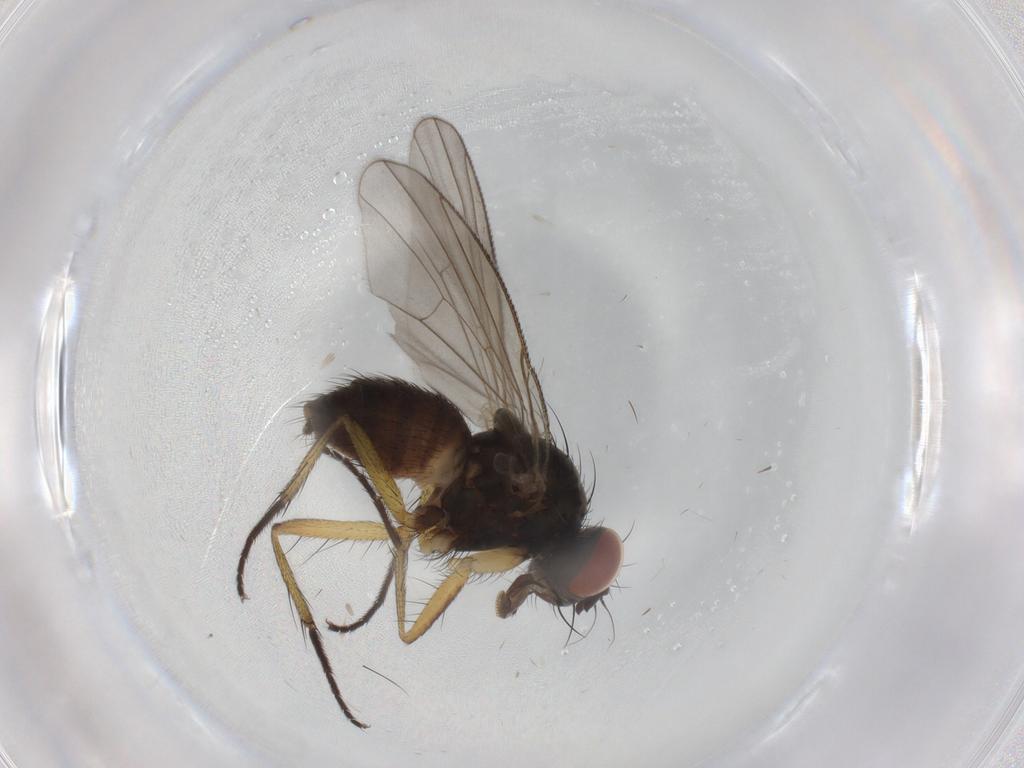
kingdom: Animalia
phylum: Arthropoda
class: Insecta
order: Diptera
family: Muscidae
